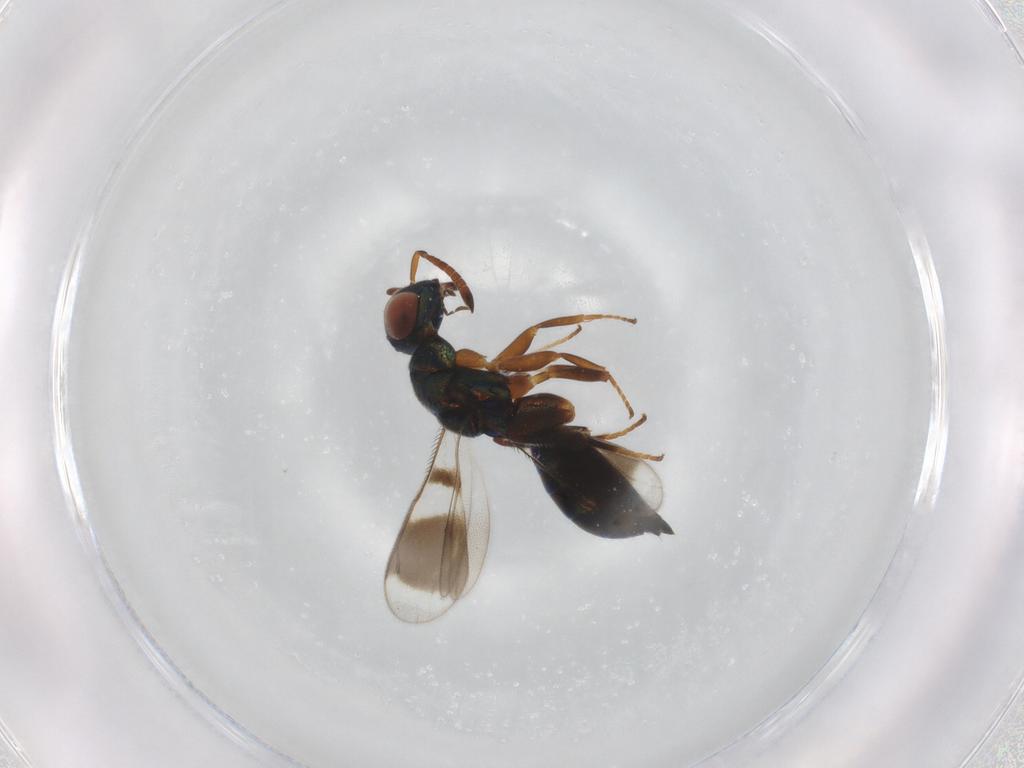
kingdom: Animalia
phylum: Arthropoda
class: Insecta
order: Hymenoptera
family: Cleonyminae
